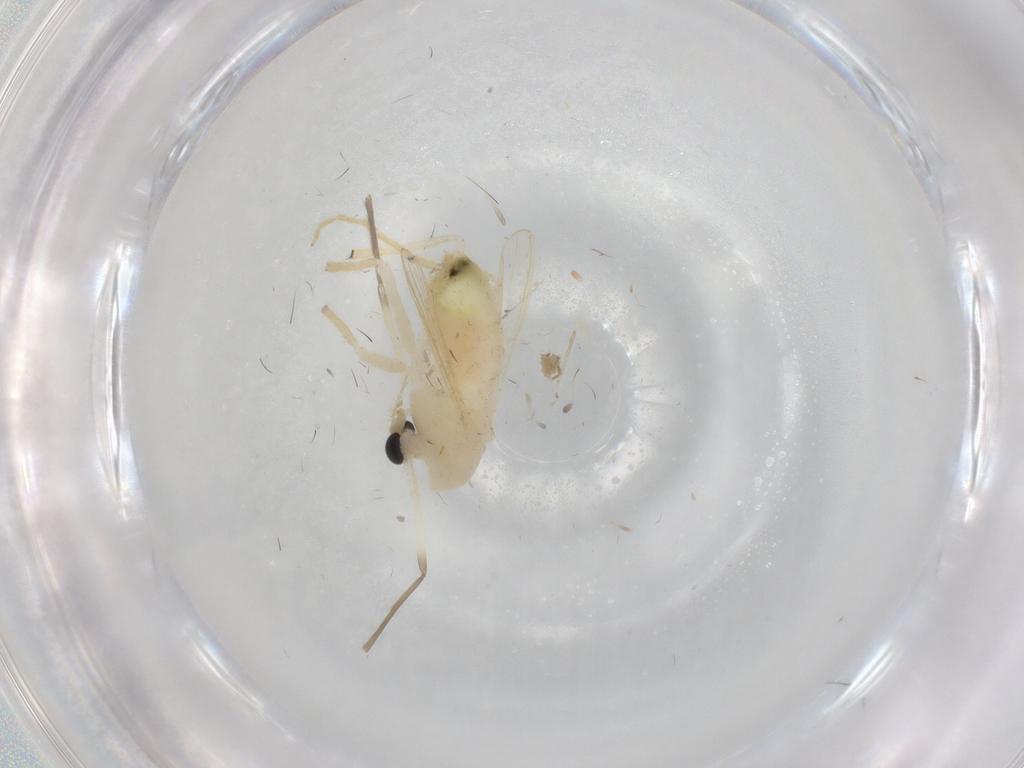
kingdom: Animalia
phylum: Arthropoda
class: Insecta
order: Diptera
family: Chironomidae
